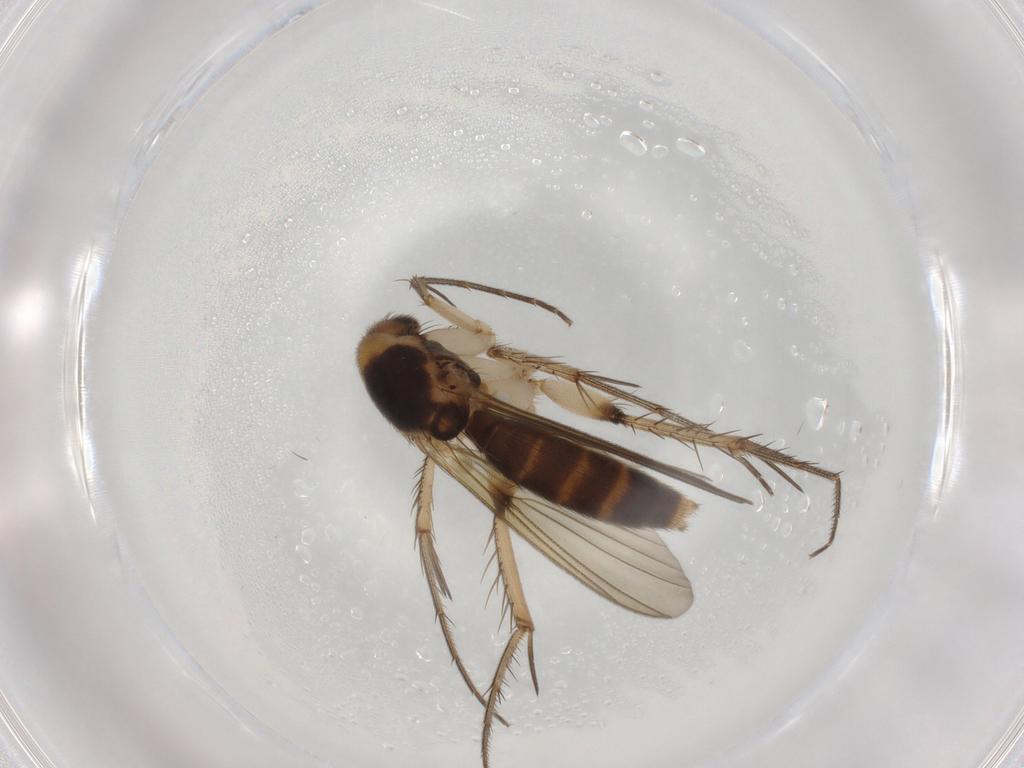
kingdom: Animalia
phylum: Arthropoda
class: Insecta
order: Diptera
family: Mycetophilidae
